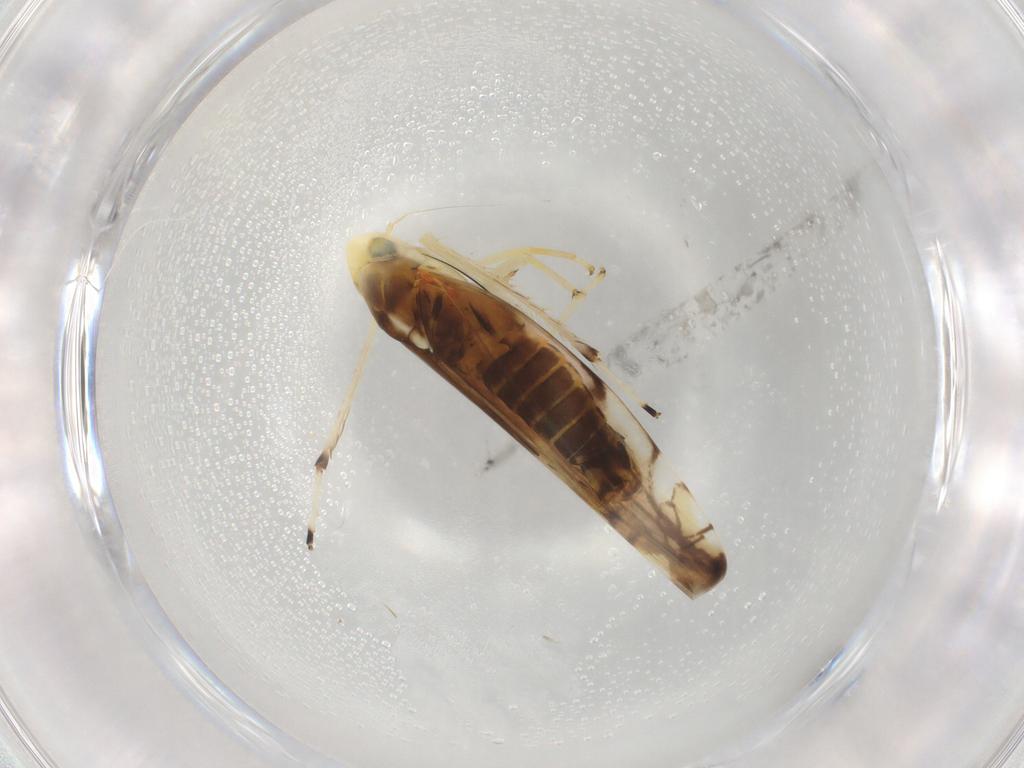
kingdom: Animalia
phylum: Arthropoda
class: Insecta
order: Hemiptera
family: Cicadellidae
